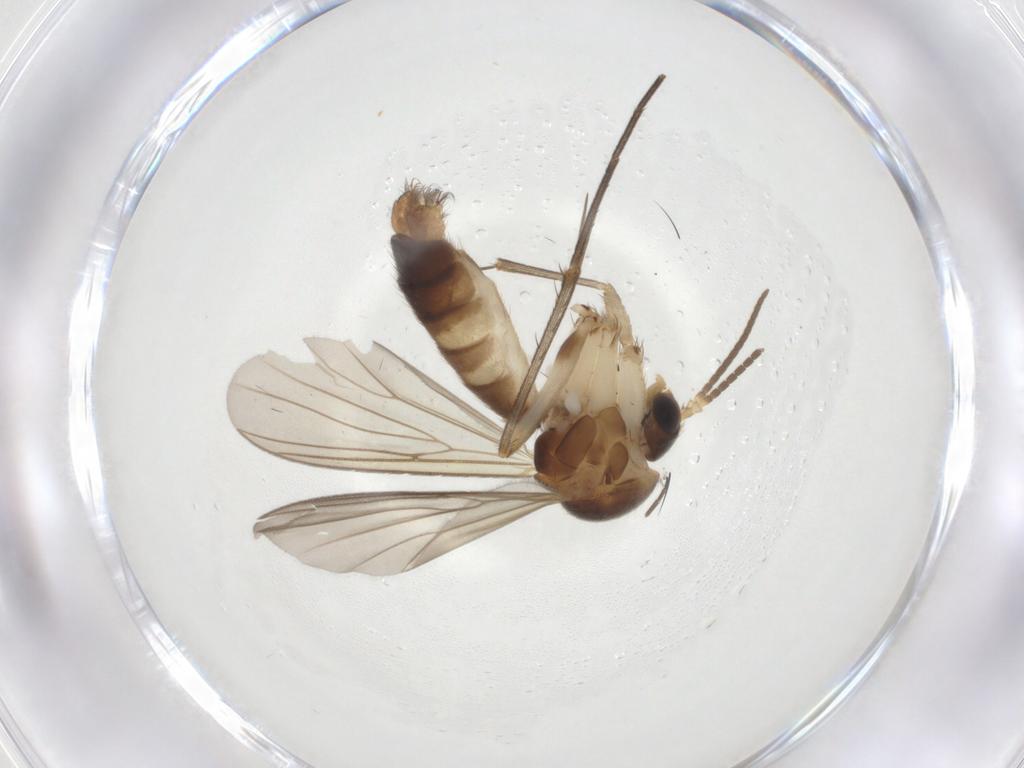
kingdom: Animalia
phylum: Arthropoda
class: Insecta
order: Diptera
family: Mycetophilidae
